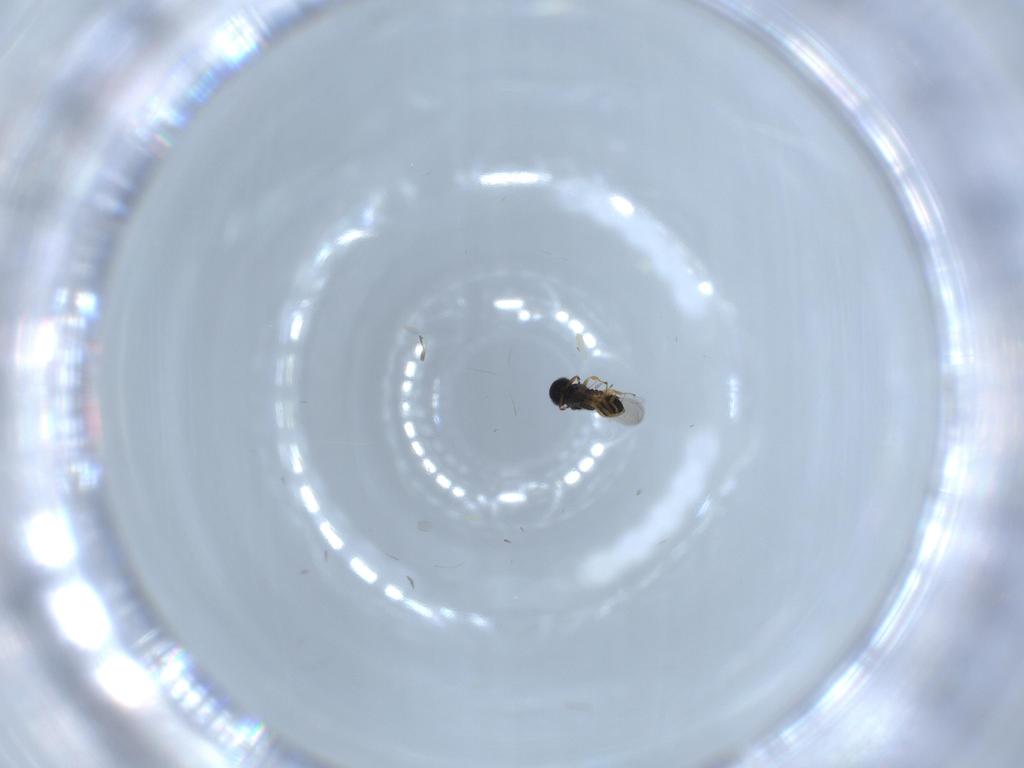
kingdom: Animalia
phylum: Arthropoda
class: Insecta
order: Hymenoptera
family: Scelionidae
